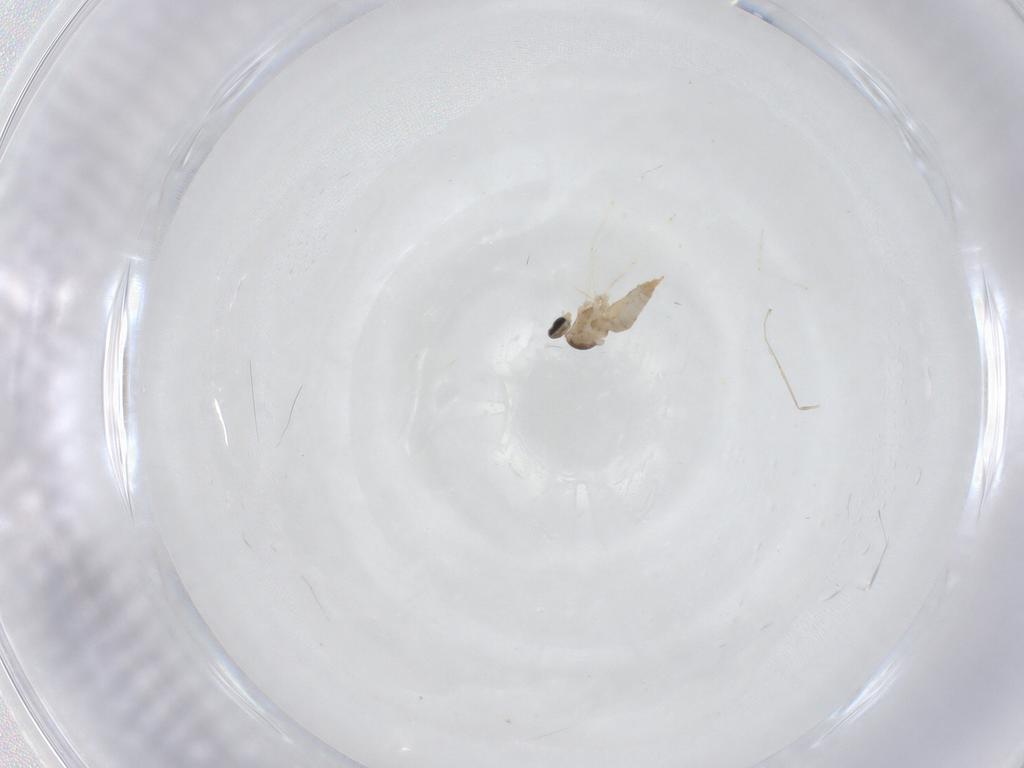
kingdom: Animalia
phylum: Arthropoda
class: Insecta
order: Diptera
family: Cecidomyiidae
